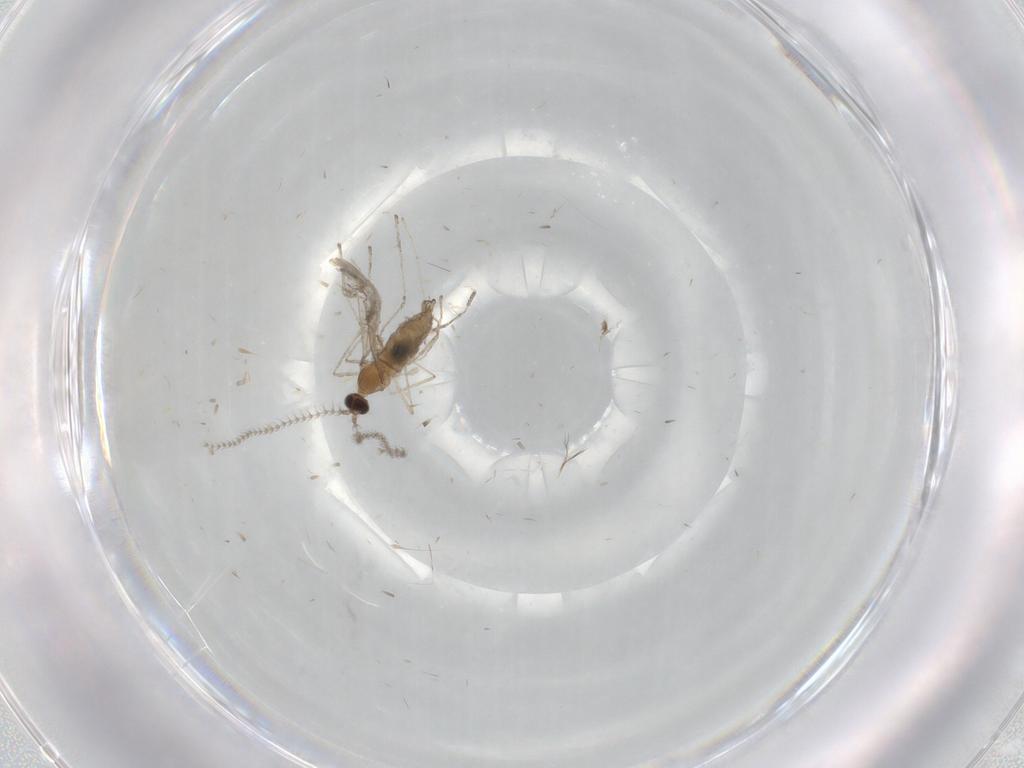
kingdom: Animalia
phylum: Arthropoda
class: Insecta
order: Diptera
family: Cecidomyiidae
